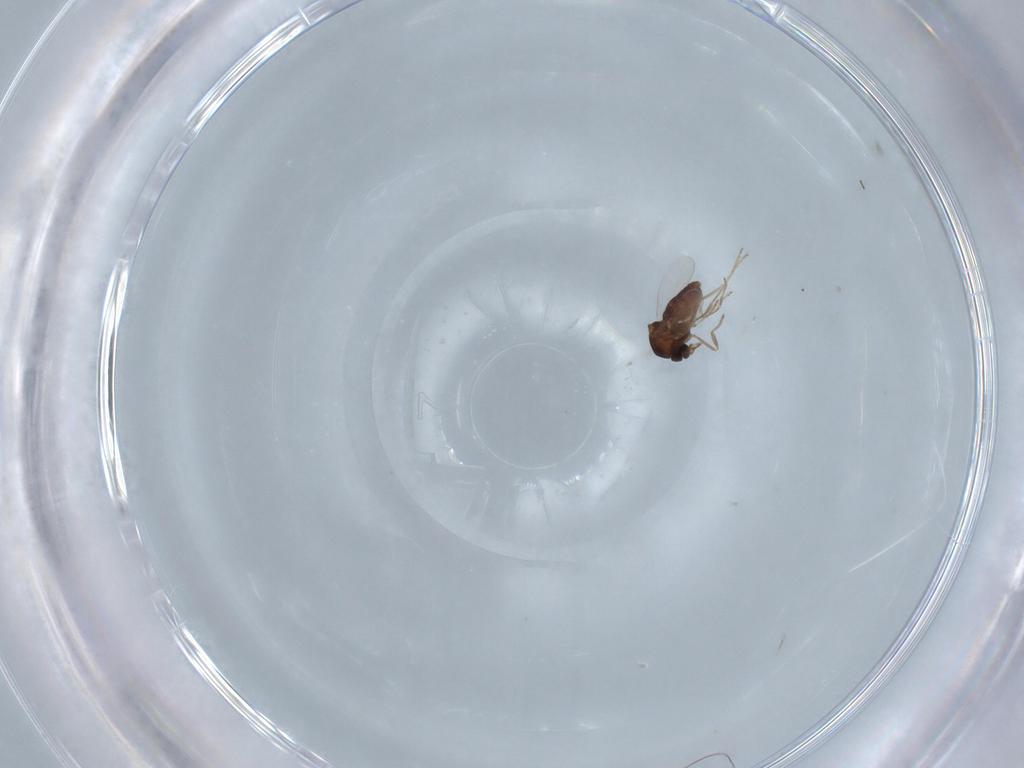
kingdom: Animalia
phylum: Arthropoda
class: Insecta
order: Diptera
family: Ceratopogonidae
